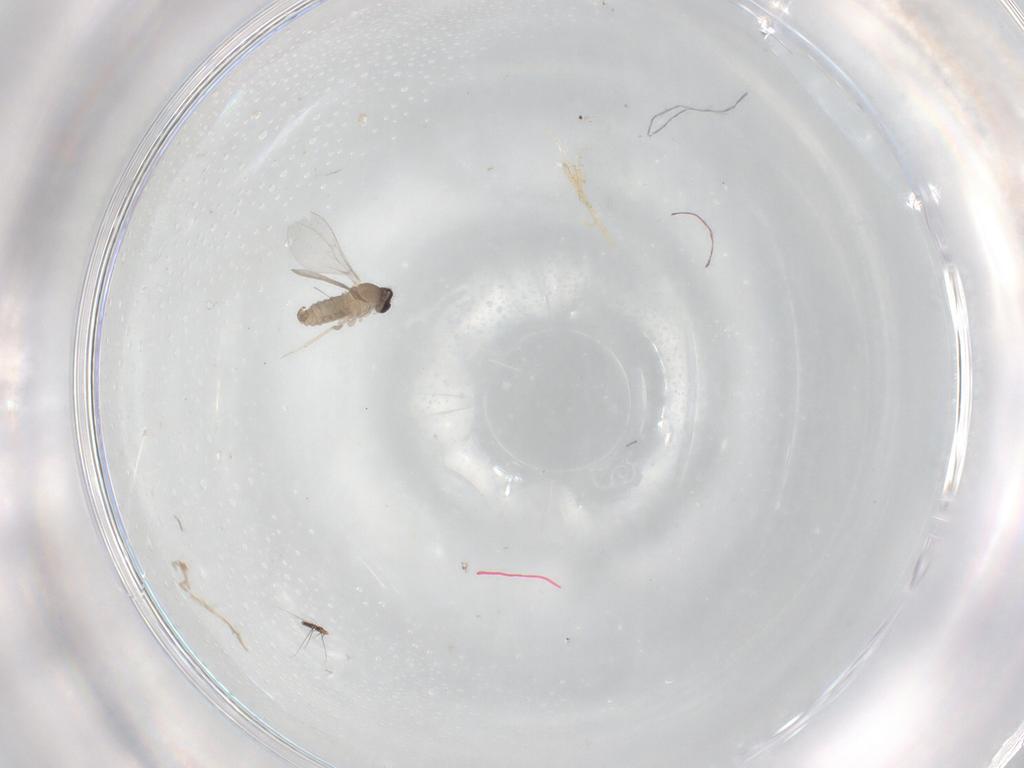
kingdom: Animalia
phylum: Arthropoda
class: Insecta
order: Diptera
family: Cecidomyiidae
